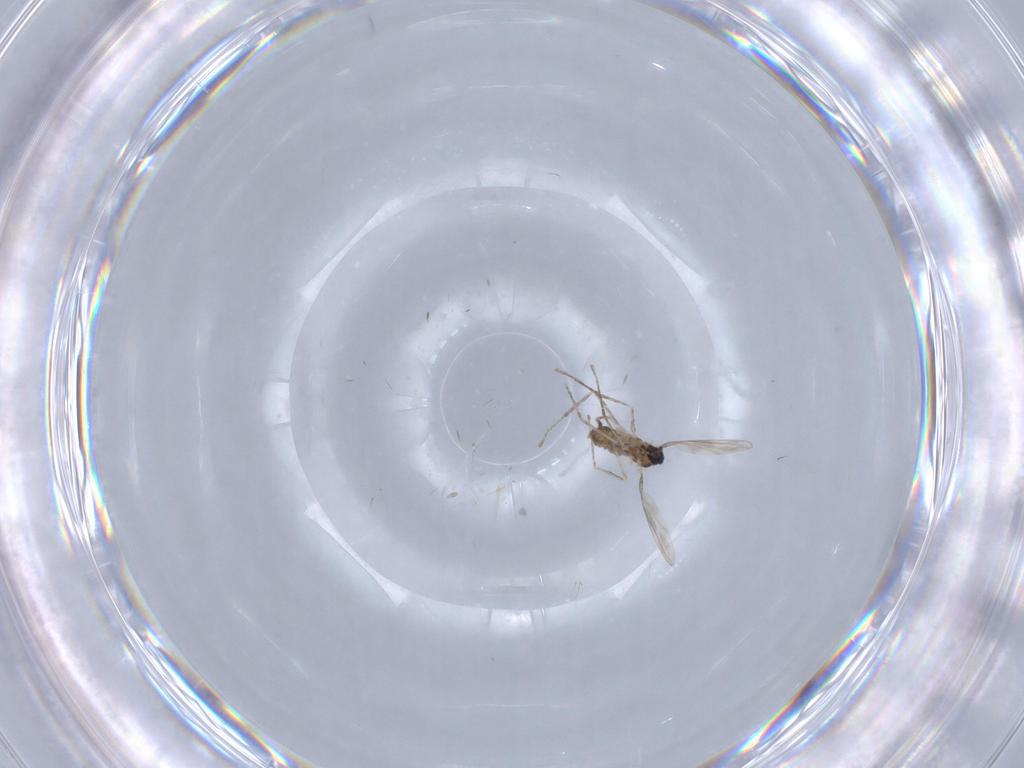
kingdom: Animalia
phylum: Arthropoda
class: Insecta
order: Diptera
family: Cecidomyiidae
